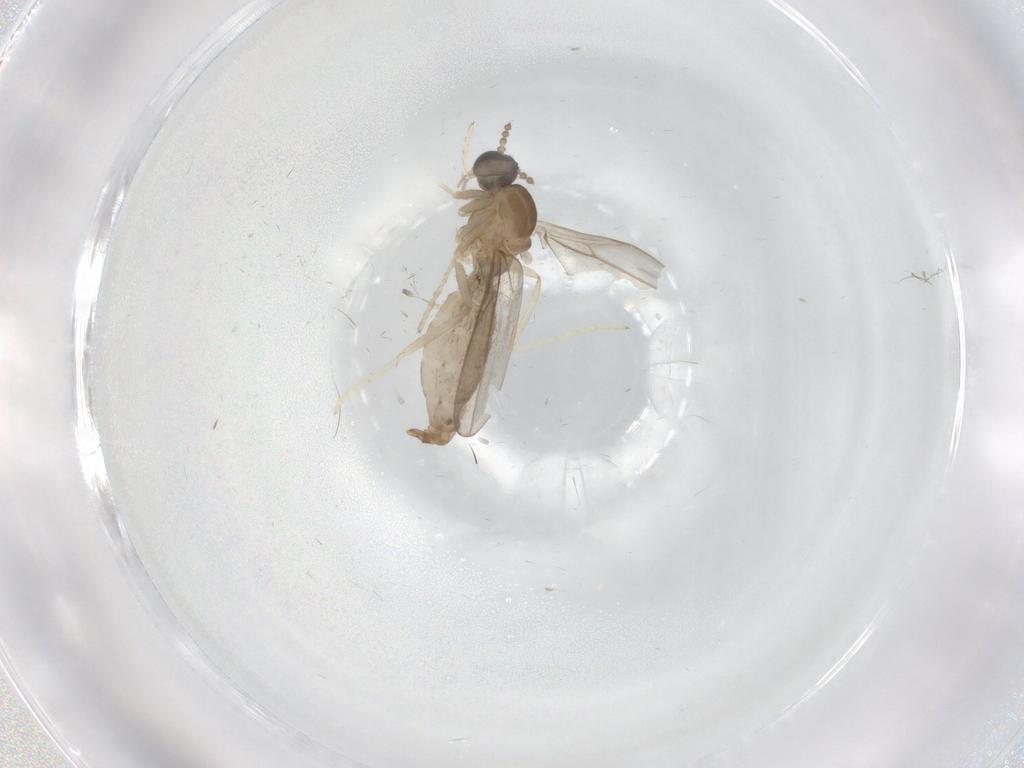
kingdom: Animalia
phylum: Arthropoda
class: Insecta
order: Diptera
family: Cecidomyiidae
